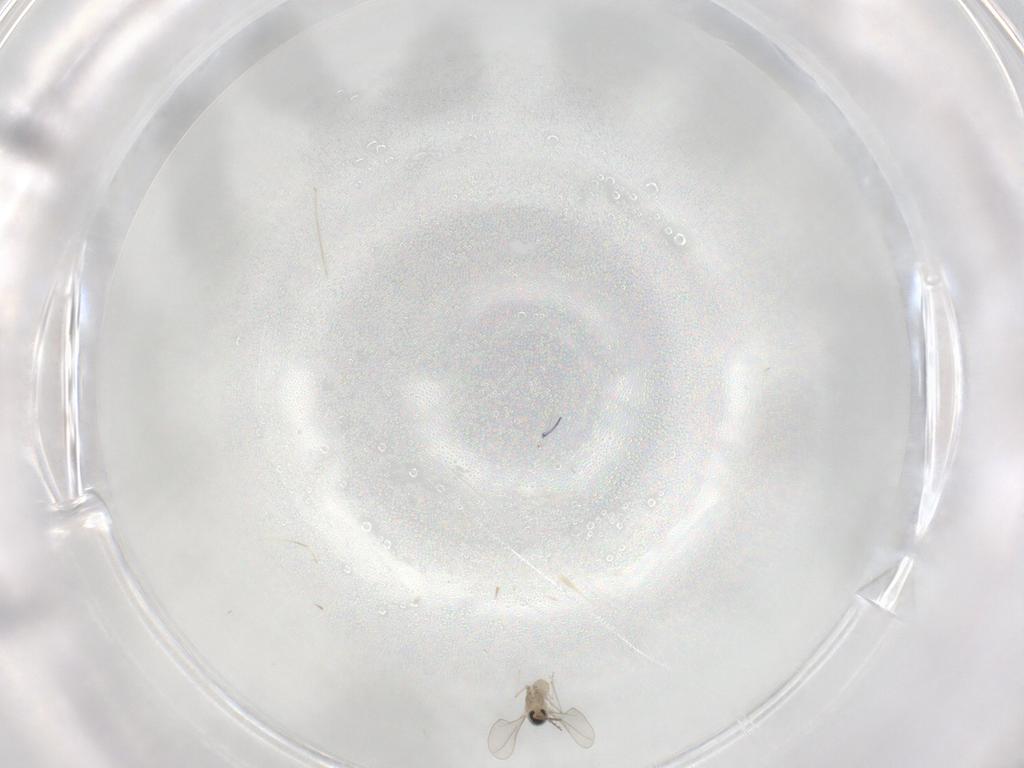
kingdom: Animalia
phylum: Arthropoda
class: Insecta
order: Diptera
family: Cecidomyiidae
